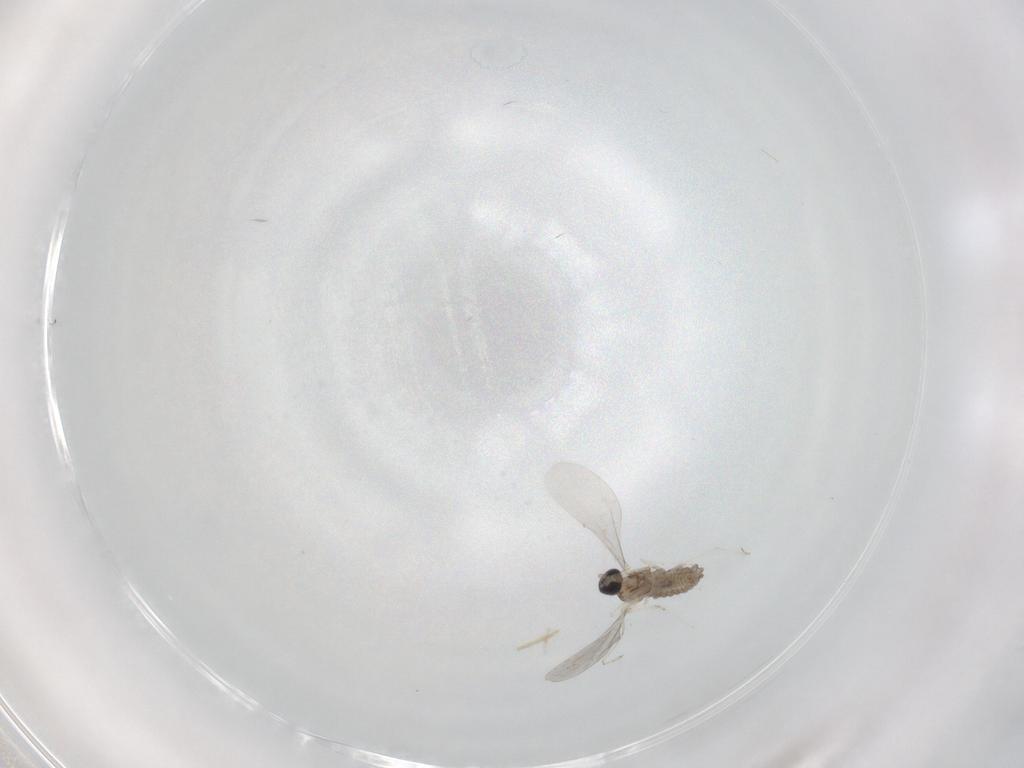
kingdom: Animalia
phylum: Arthropoda
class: Insecta
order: Diptera
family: Cecidomyiidae
